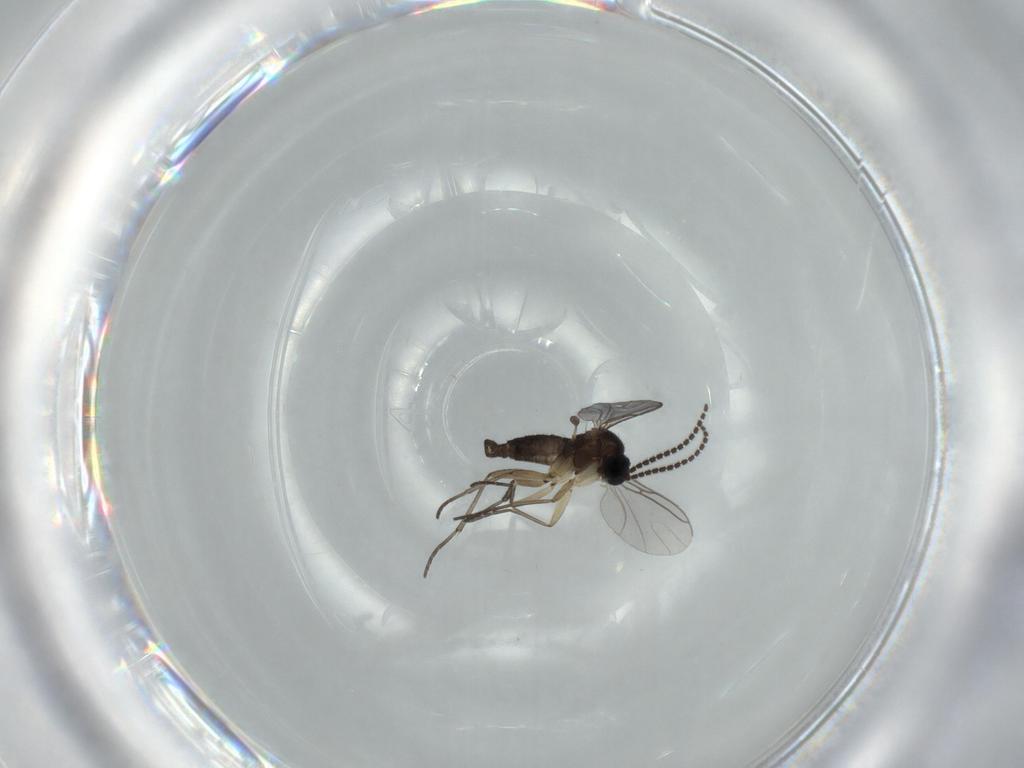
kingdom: Animalia
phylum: Arthropoda
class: Insecta
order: Diptera
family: Sciaridae
